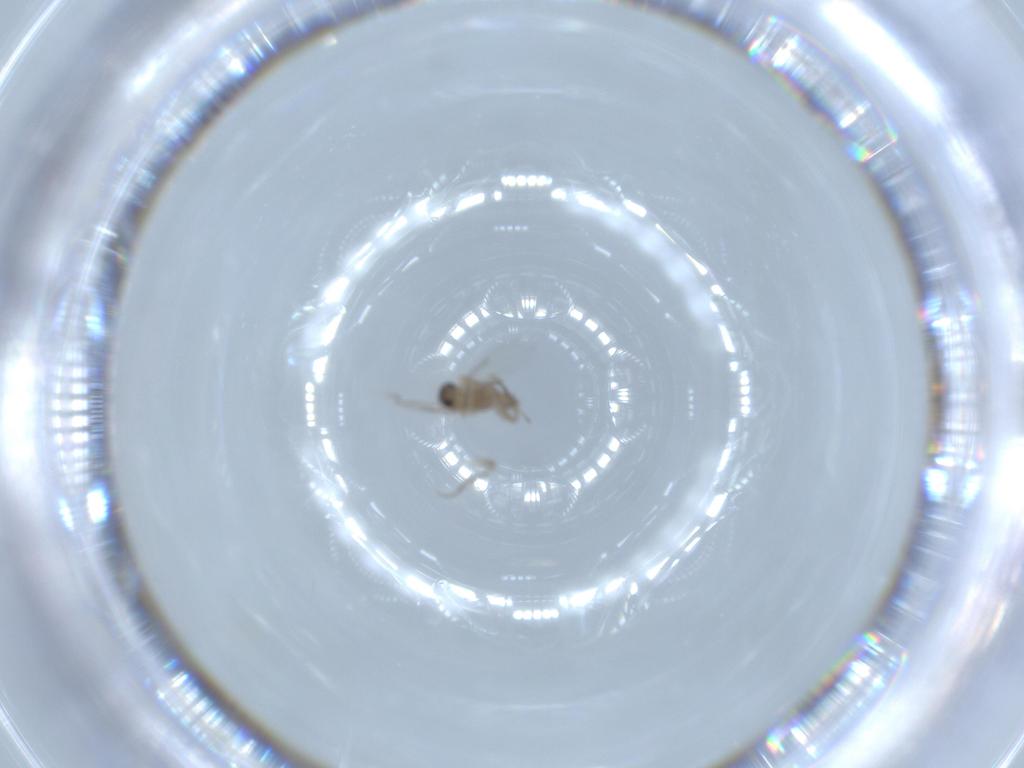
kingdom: Animalia
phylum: Arthropoda
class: Insecta
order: Diptera
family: Phoridae
